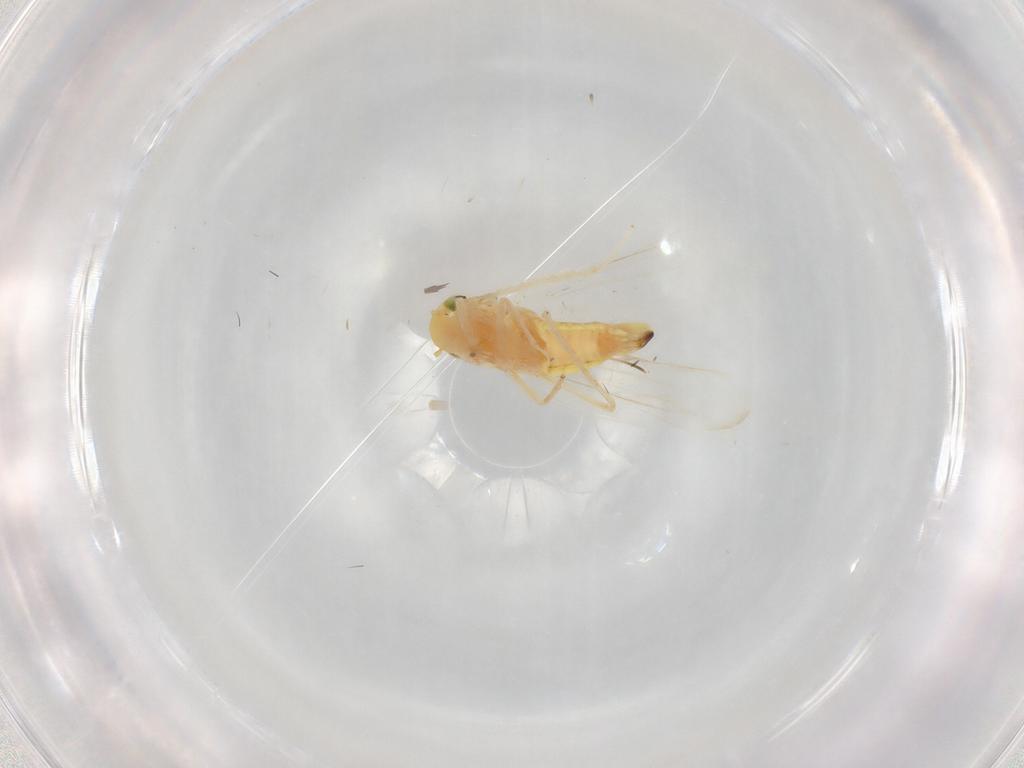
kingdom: Animalia
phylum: Arthropoda
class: Insecta
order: Hemiptera
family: Cicadellidae
